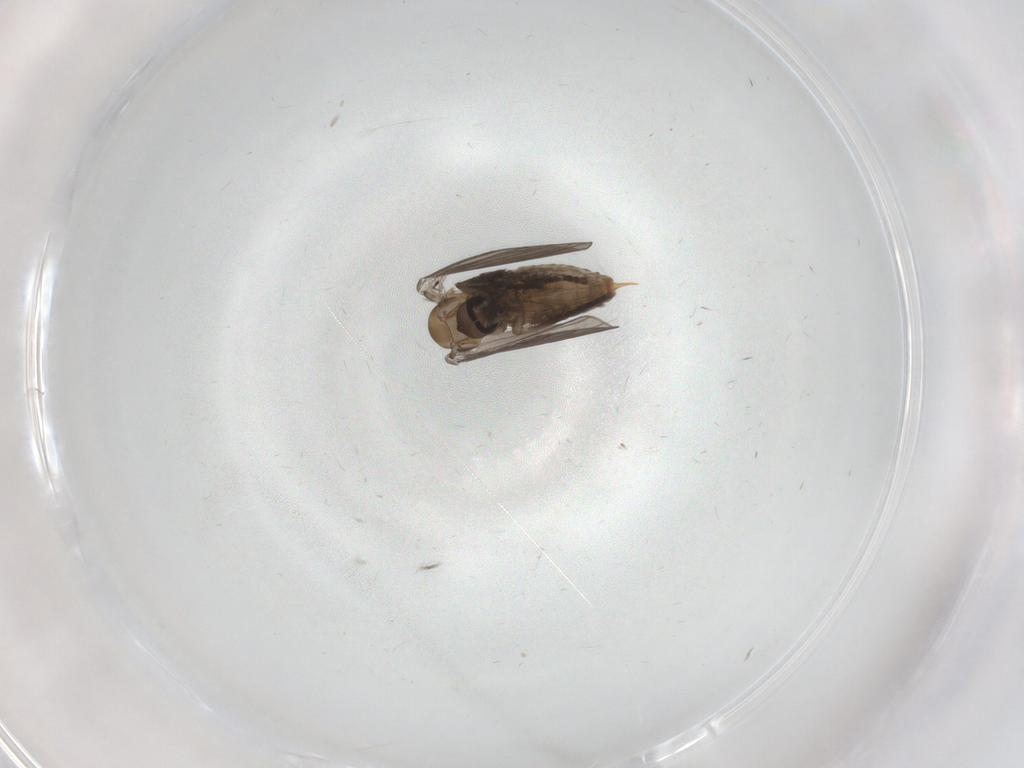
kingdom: Animalia
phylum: Arthropoda
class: Insecta
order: Diptera
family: Ceratopogonidae
